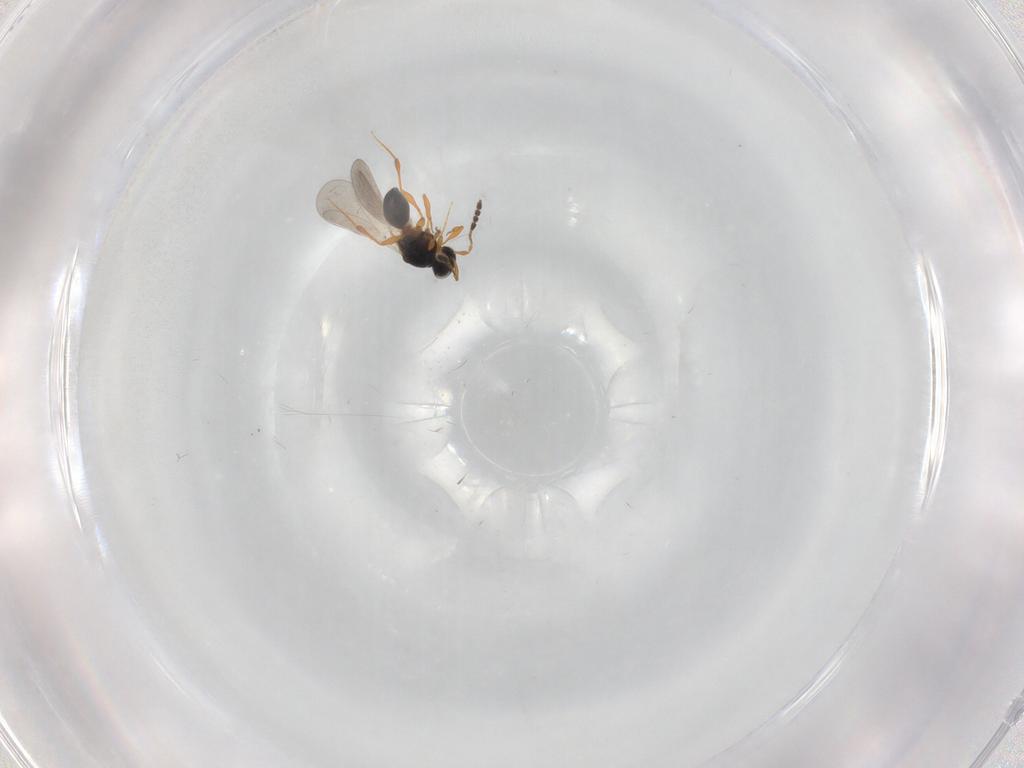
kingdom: Animalia
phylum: Arthropoda
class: Insecta
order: Hymenoptera
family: Platygastridae
